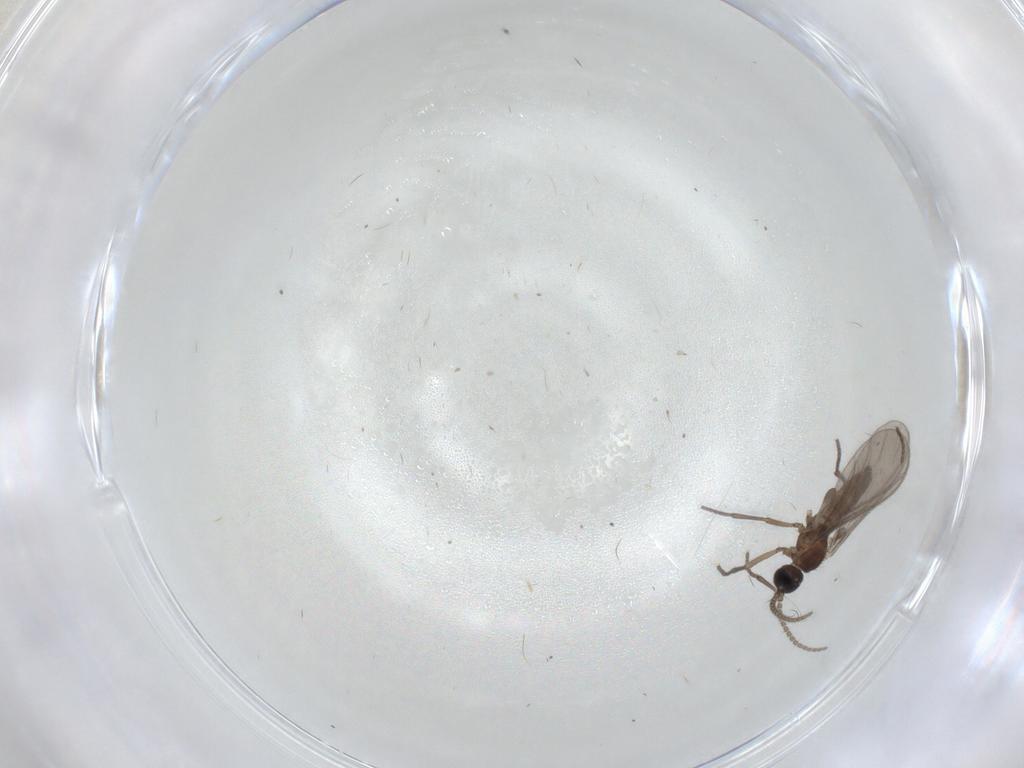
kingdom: Animalia
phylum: Arthropoda
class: Insecta
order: Diptera
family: Sciaridae
